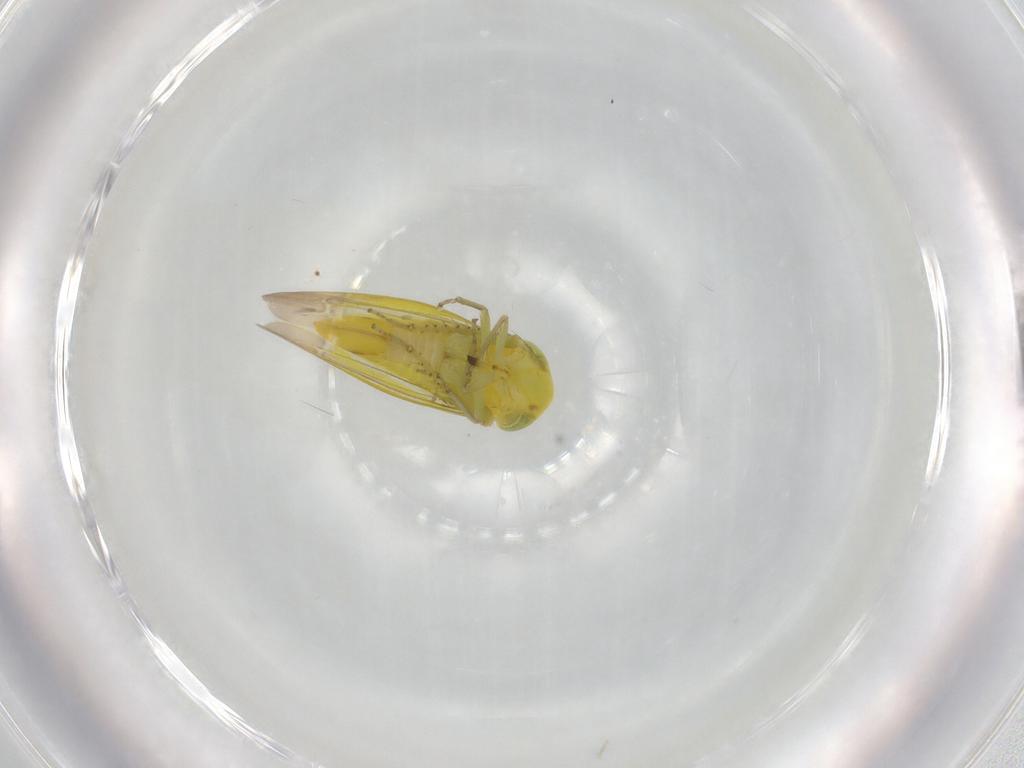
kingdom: Animalia
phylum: Arthropoda
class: Insecta
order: Hemiptera
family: Cicadellidae
